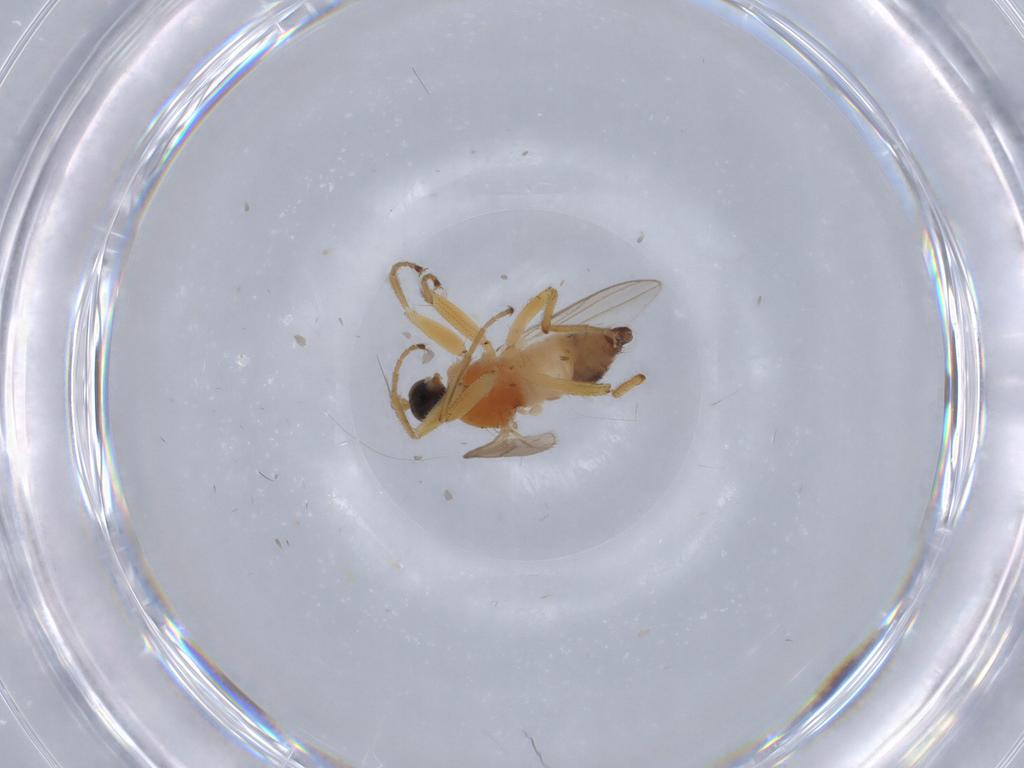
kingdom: Animalia
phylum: Arthropoda
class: Insecta
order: Diptera
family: Hybotidae
